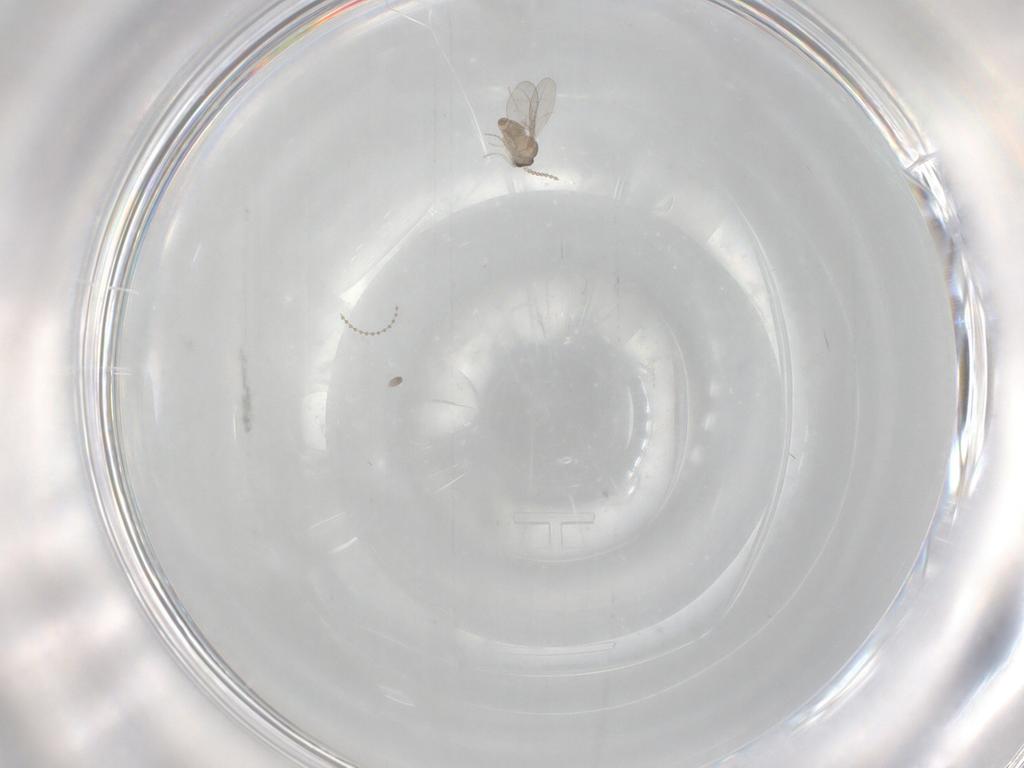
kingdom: Animalia
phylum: Arthropoda
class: Insecta
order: Diptera
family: Cecidomyiidae
